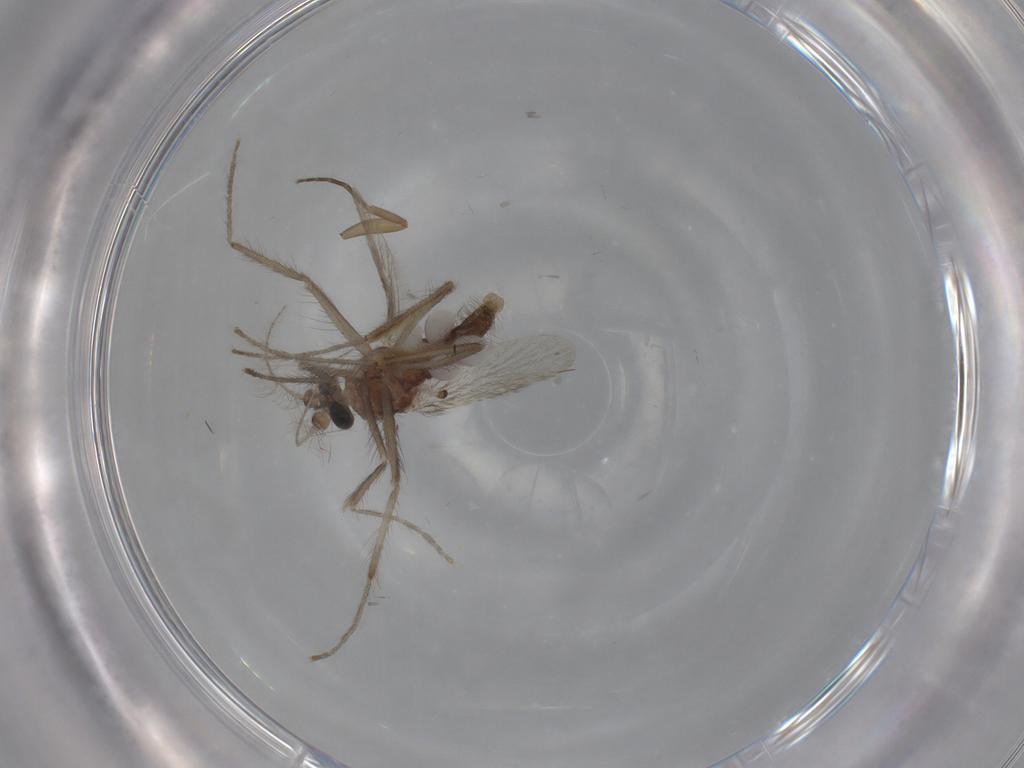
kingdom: Animalia
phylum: Arthropoda
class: Insecta
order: Diptera
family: Corethrellidae
